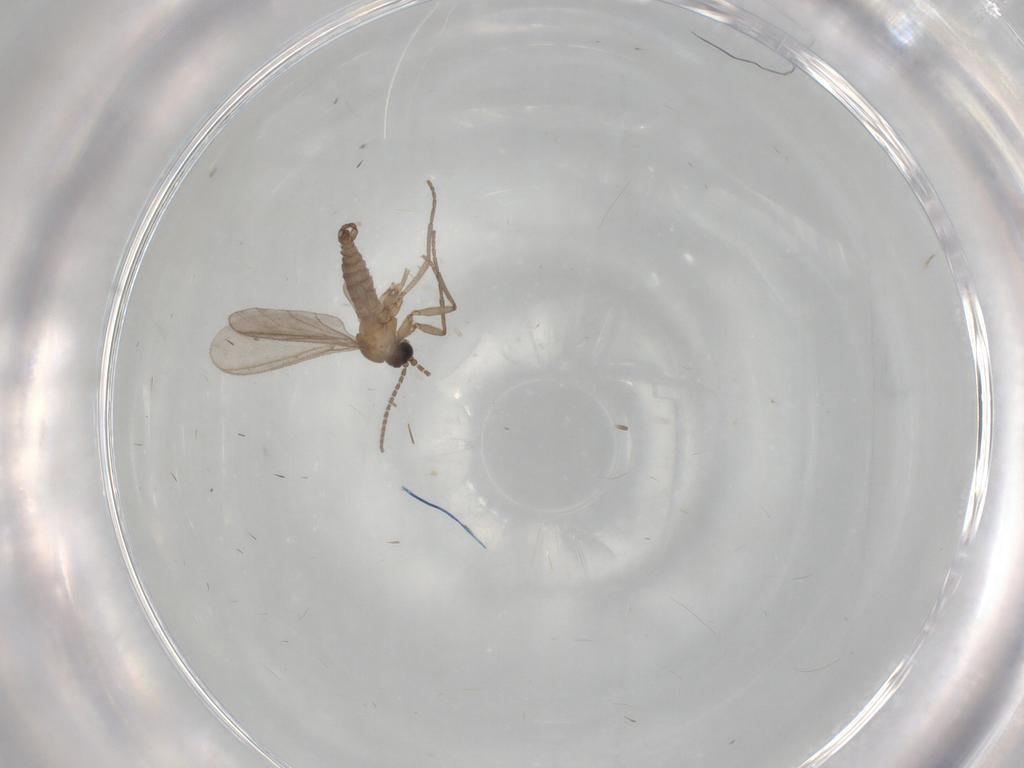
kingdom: Animalia
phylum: Arthropoda
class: Insecta
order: Diptera
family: Sciaridae
